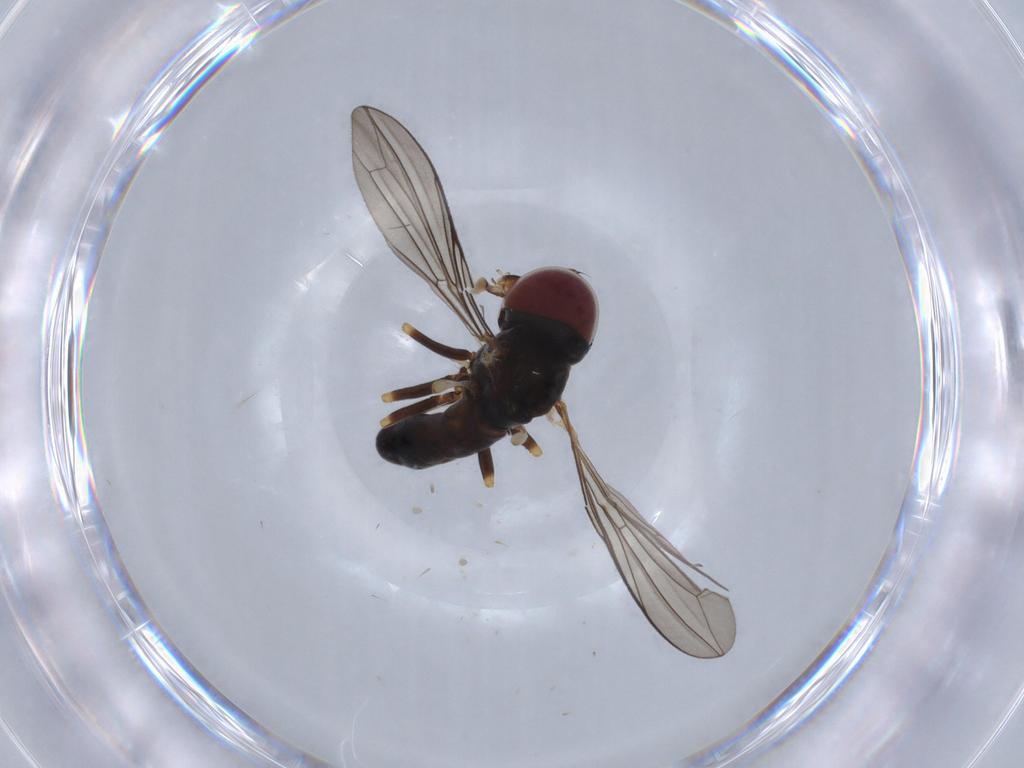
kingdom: Animalia
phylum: Arthropoda
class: Insecta
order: Diptera
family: Pipunculidae
